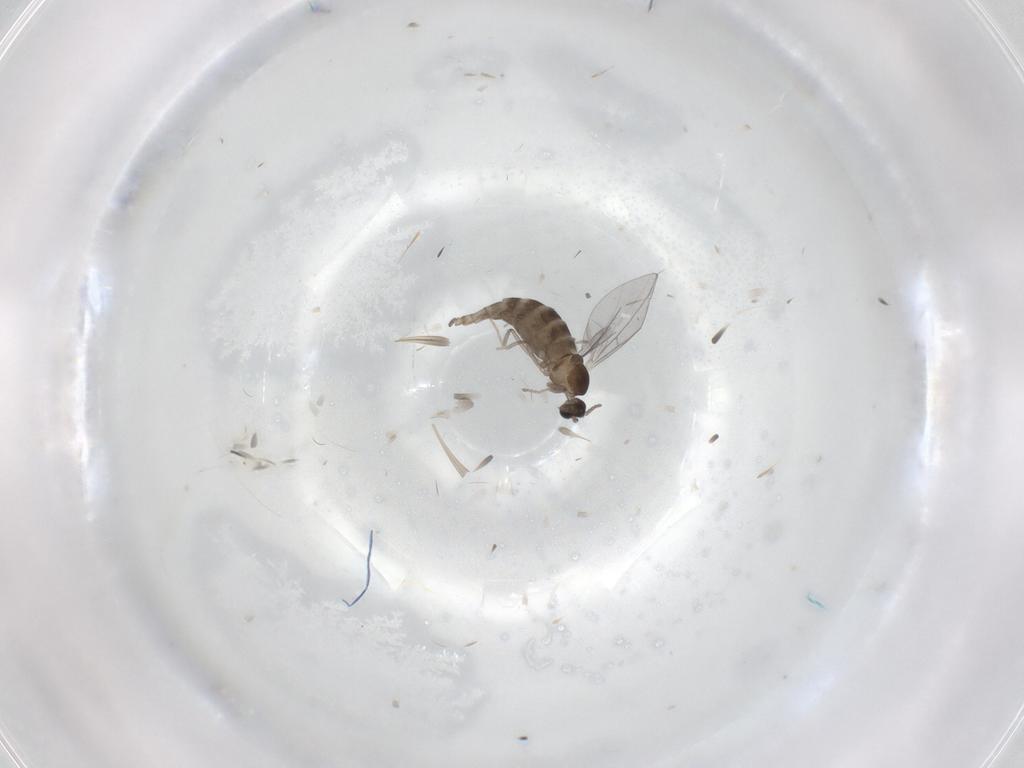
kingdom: Animalia
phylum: Arthropoda
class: Insecta
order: Diptera
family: Cecidomyiidae
